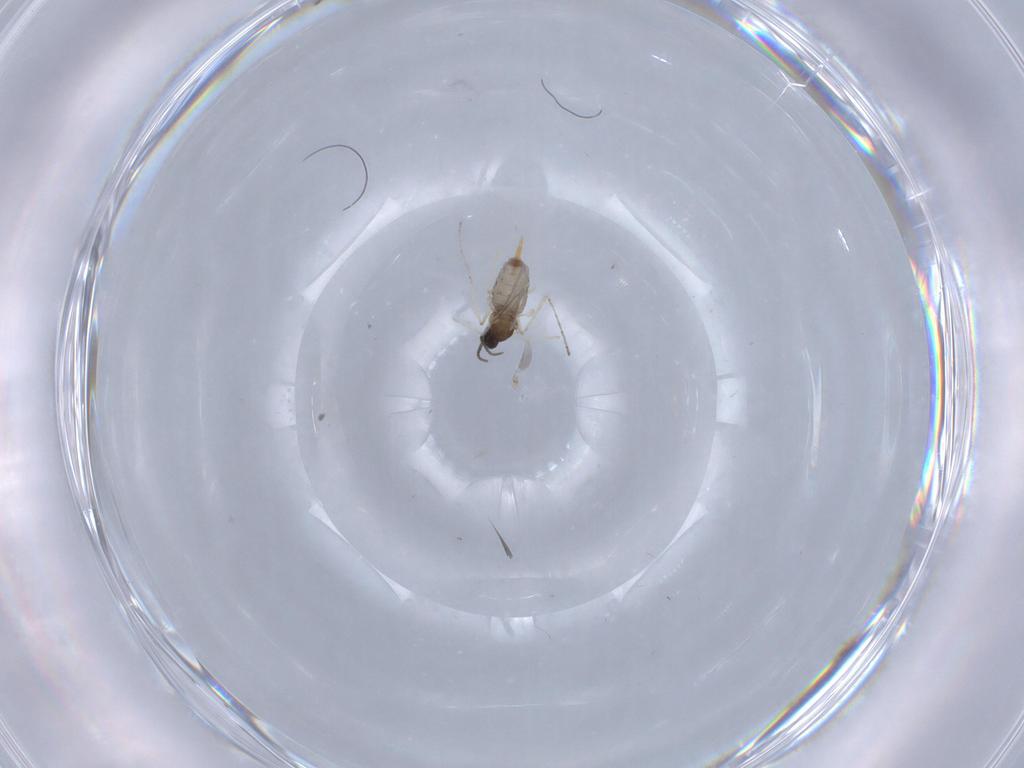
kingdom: Animalia
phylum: Arthropoda
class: Insecta
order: Diptera
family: Cecidomyiidae
